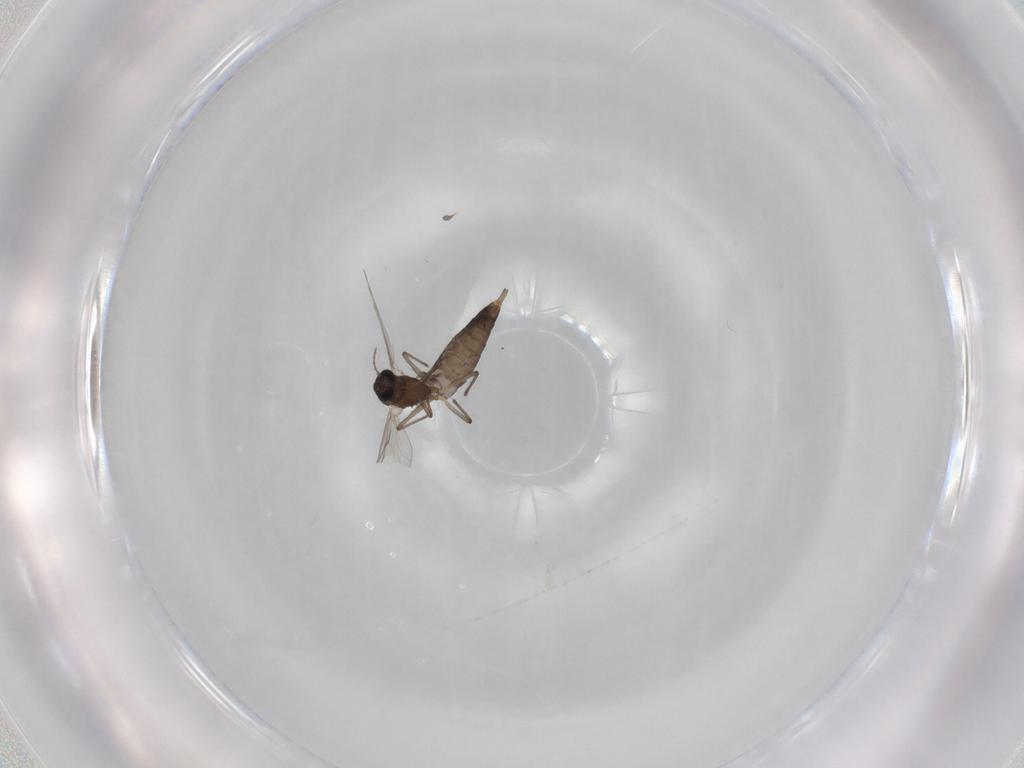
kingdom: Animalia
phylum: Arthropoda
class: Insecta
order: Diptera
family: Chironomidae
